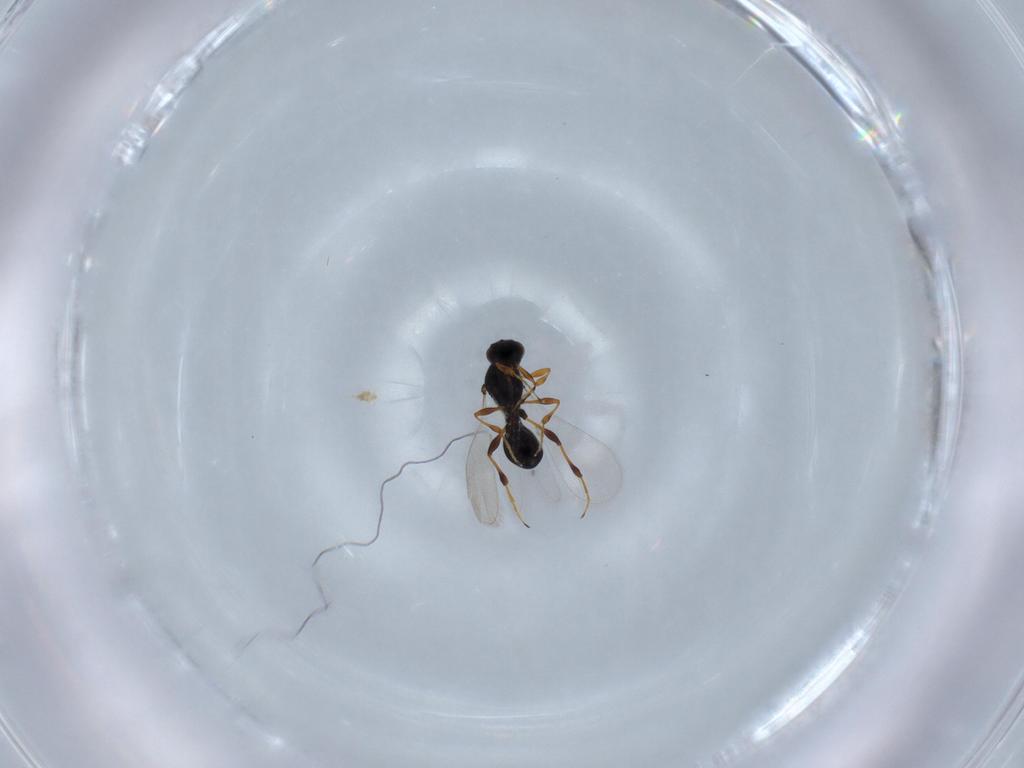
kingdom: Animalia
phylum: Arthropoda
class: Insecta
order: Hymenoptera
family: Platygastridae
